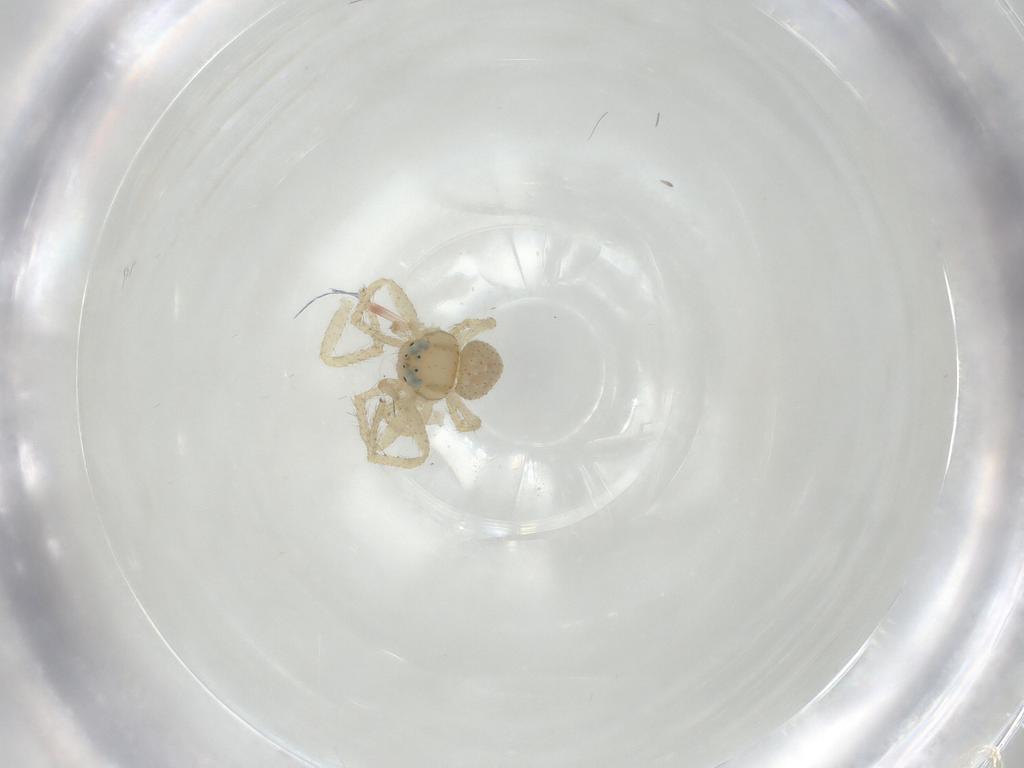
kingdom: Animalia
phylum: Arthropoda
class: Arachnida
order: Araneae
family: Thomisidae
